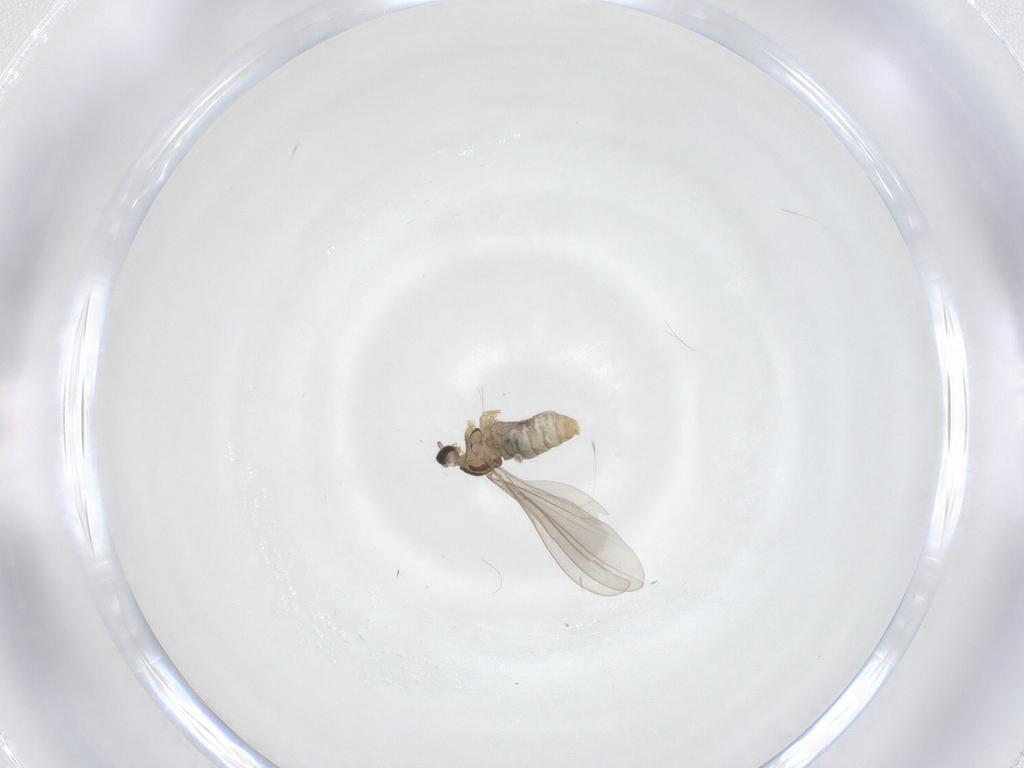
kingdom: Animalia
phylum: Arthropoda
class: Insecta
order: Diptera
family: Cecidomyiidae
